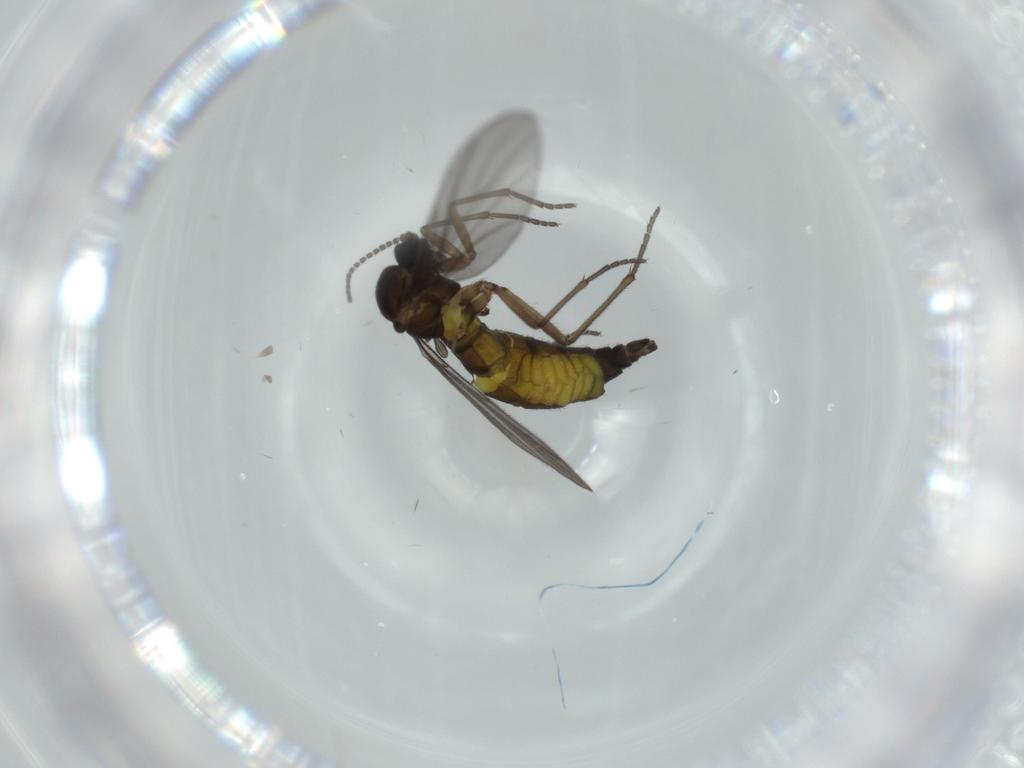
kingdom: Animalia
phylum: Arthropoda
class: Insecta
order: Diptera
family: Sciaridae
